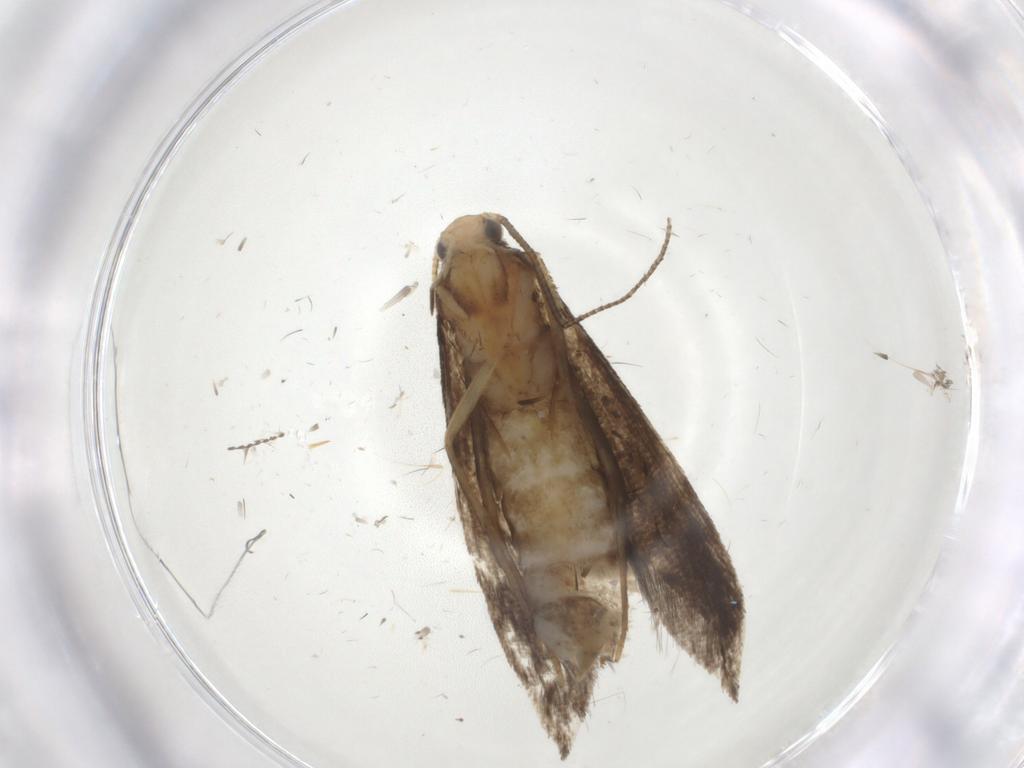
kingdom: Animalia
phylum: Arthropoda
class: Insecta
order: Lepidoptera
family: Tineidae
